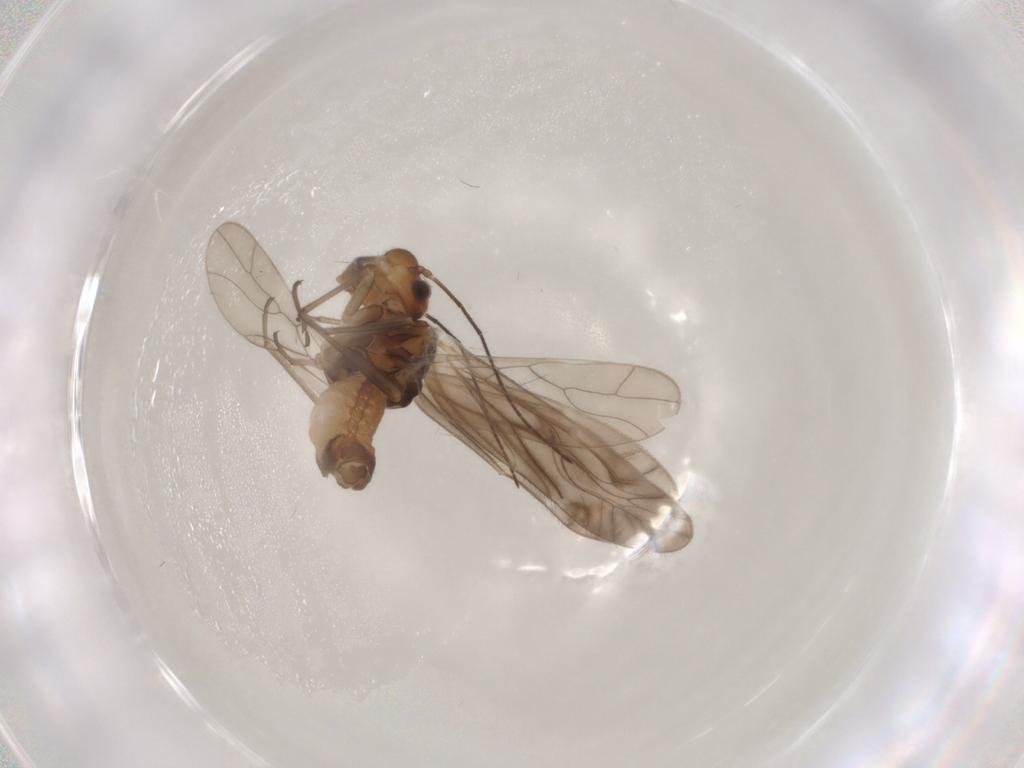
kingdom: Animalia
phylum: Arthropoda
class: Insecta
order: Psocodea
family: Philotarsidae
